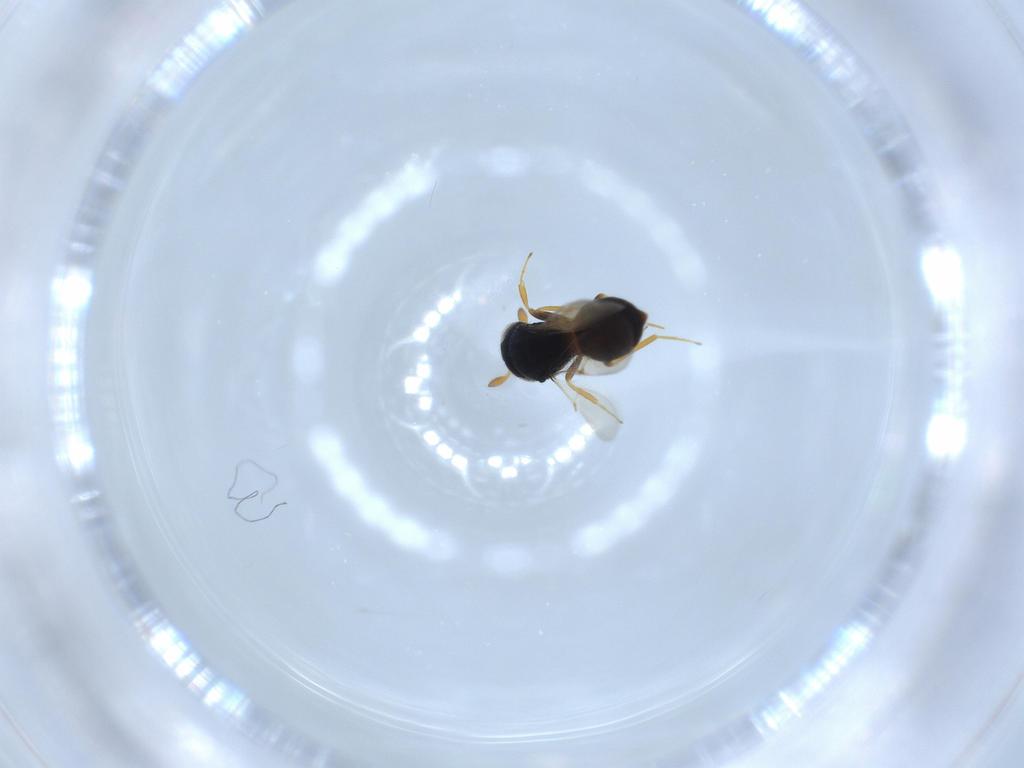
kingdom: Animalia
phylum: Arthropoda
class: Insecta
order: Hymenoptera
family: Scelionidae
